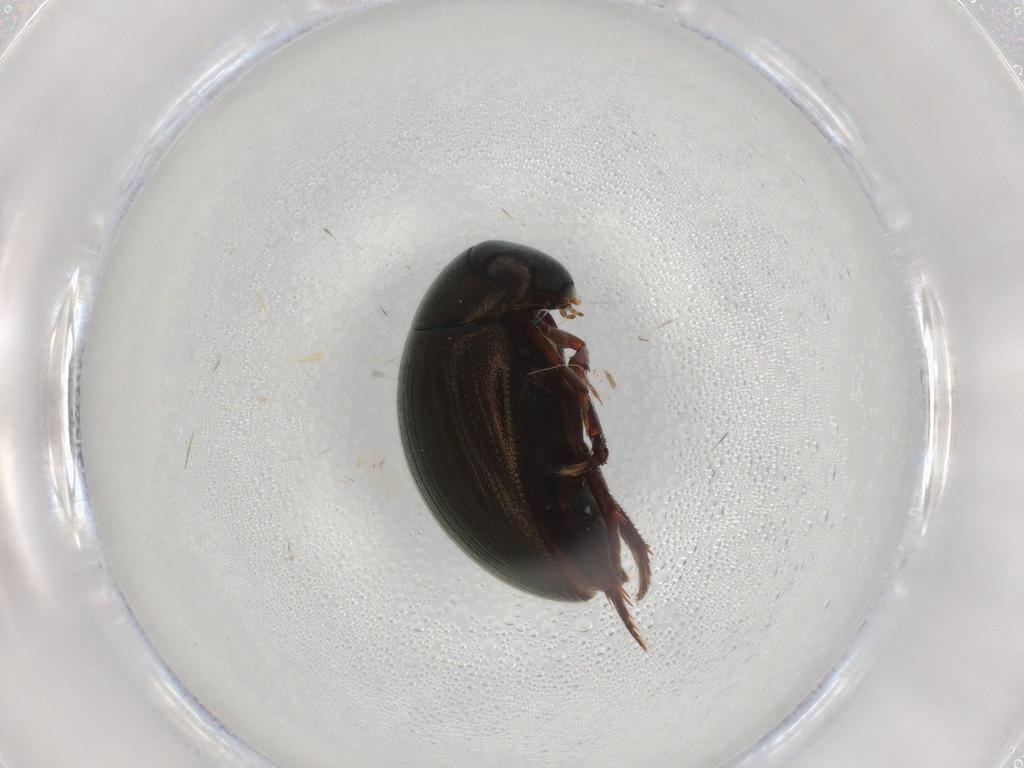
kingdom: Animalia
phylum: Arthropoda
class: Insecta
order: Coleoptera
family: Hydrophilidae
